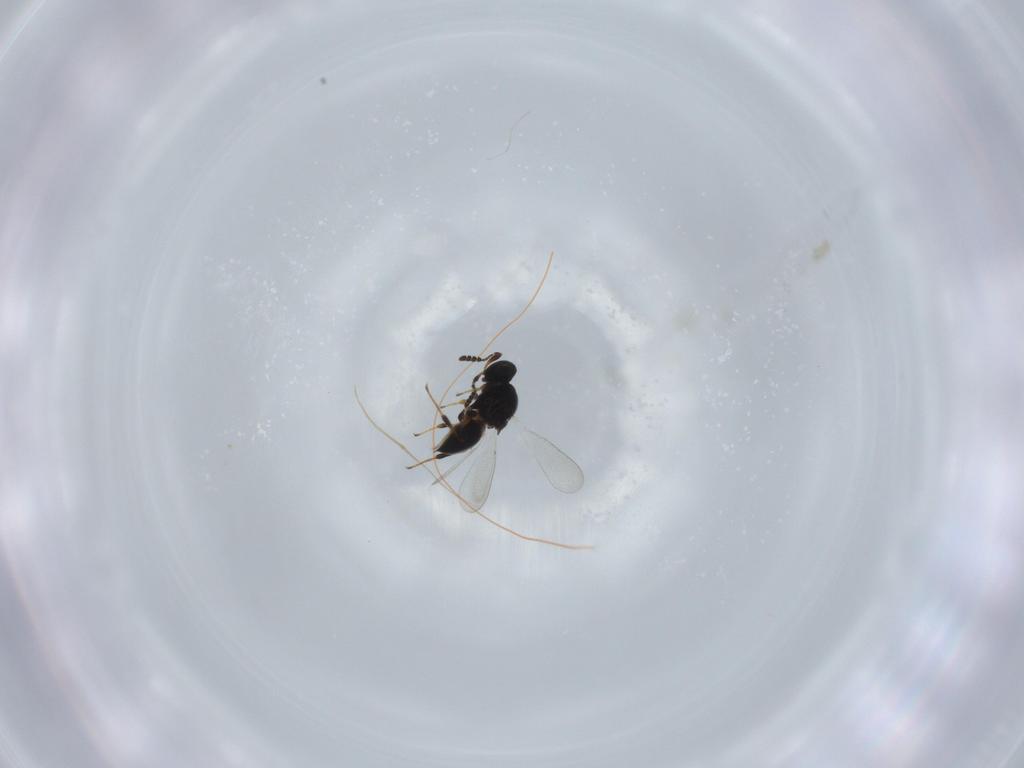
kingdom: Animalia
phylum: Arthropoda
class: Insecta
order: Hymenoptera
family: Platygastridae
